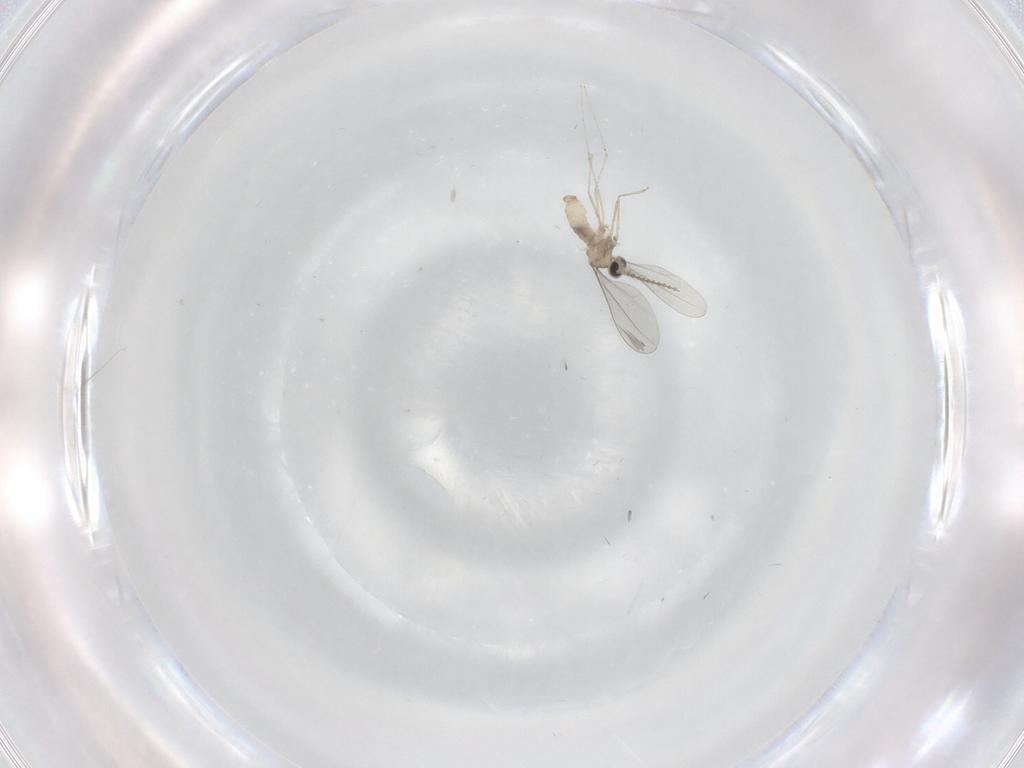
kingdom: Animalia
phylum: Arthropoda
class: Insecta
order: Diptera
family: Cecidomyiidae
